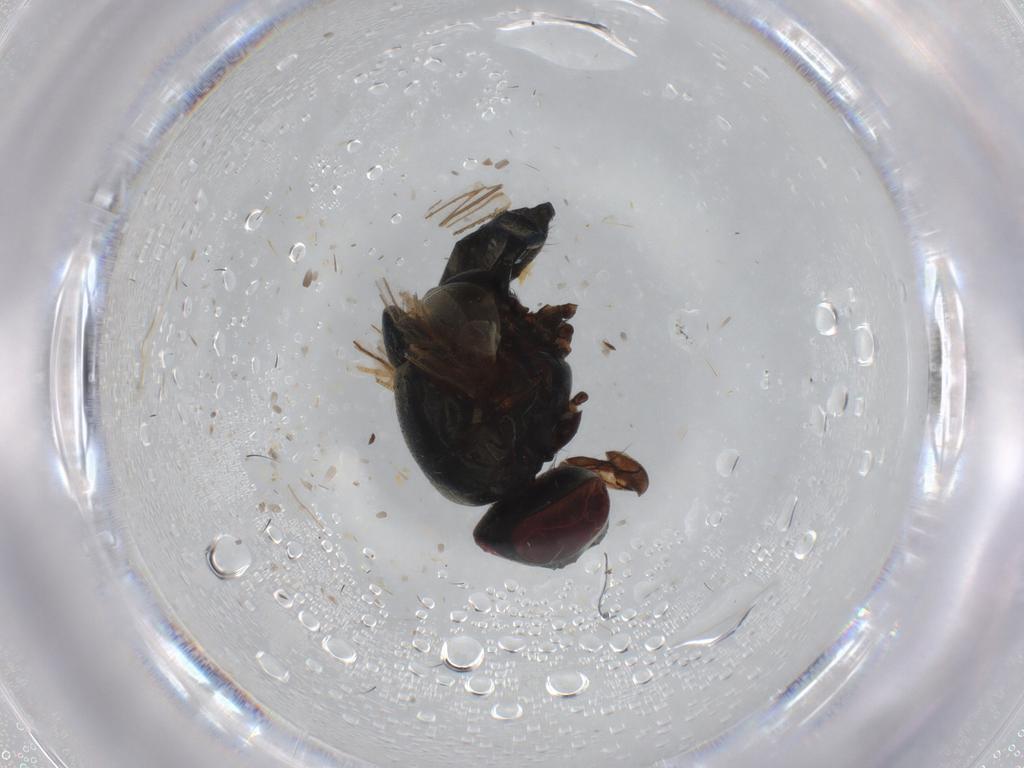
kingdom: Animalia
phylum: Arthropoda
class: Insecta
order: Diptera
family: Muscidae
